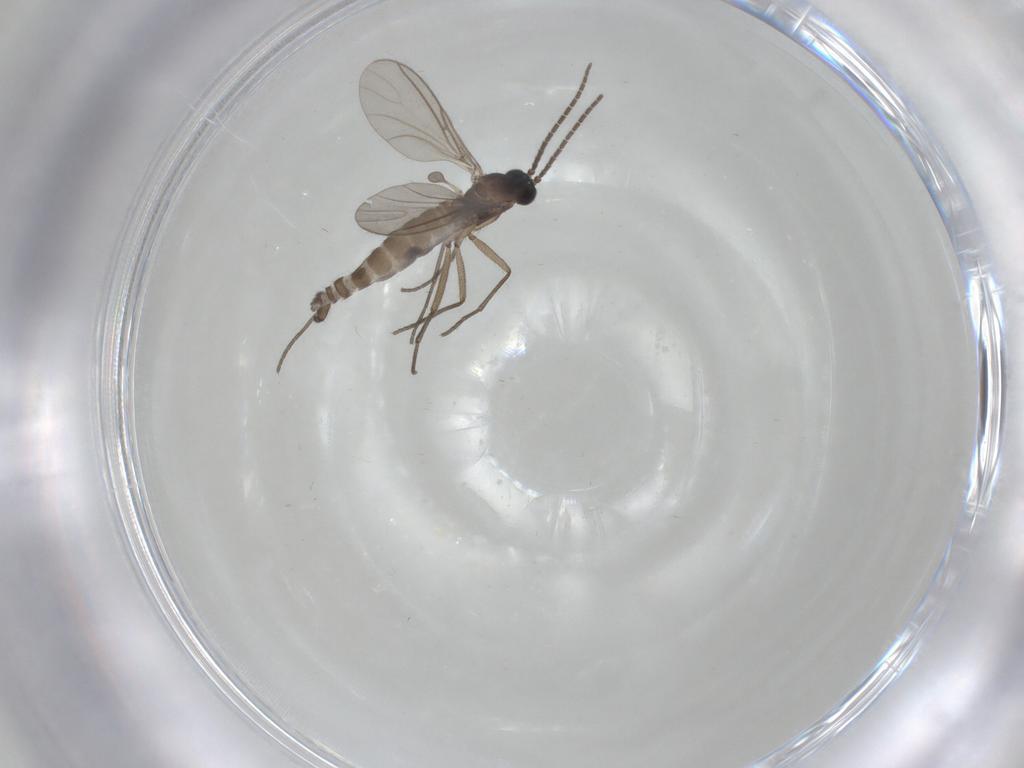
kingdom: Animalia
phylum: Arthropoda
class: Insecta
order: Diptera
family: Sciaridae
